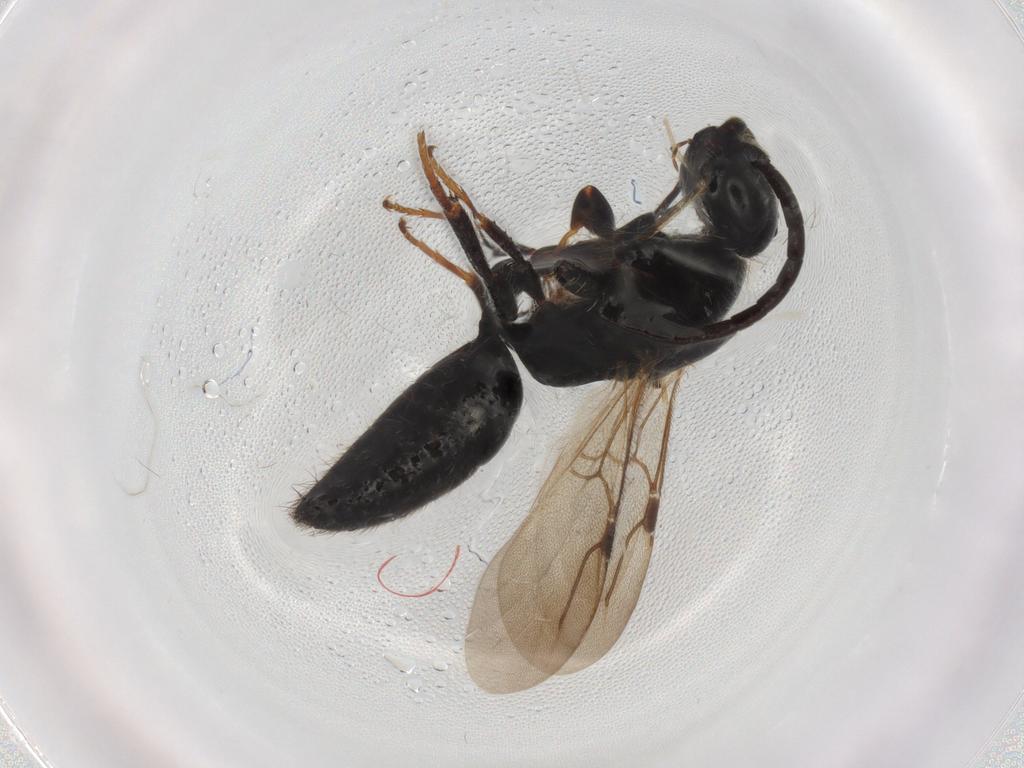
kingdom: Animalia
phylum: Arthropoda
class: Insecta
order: Hymenoptera
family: Bethylidae
